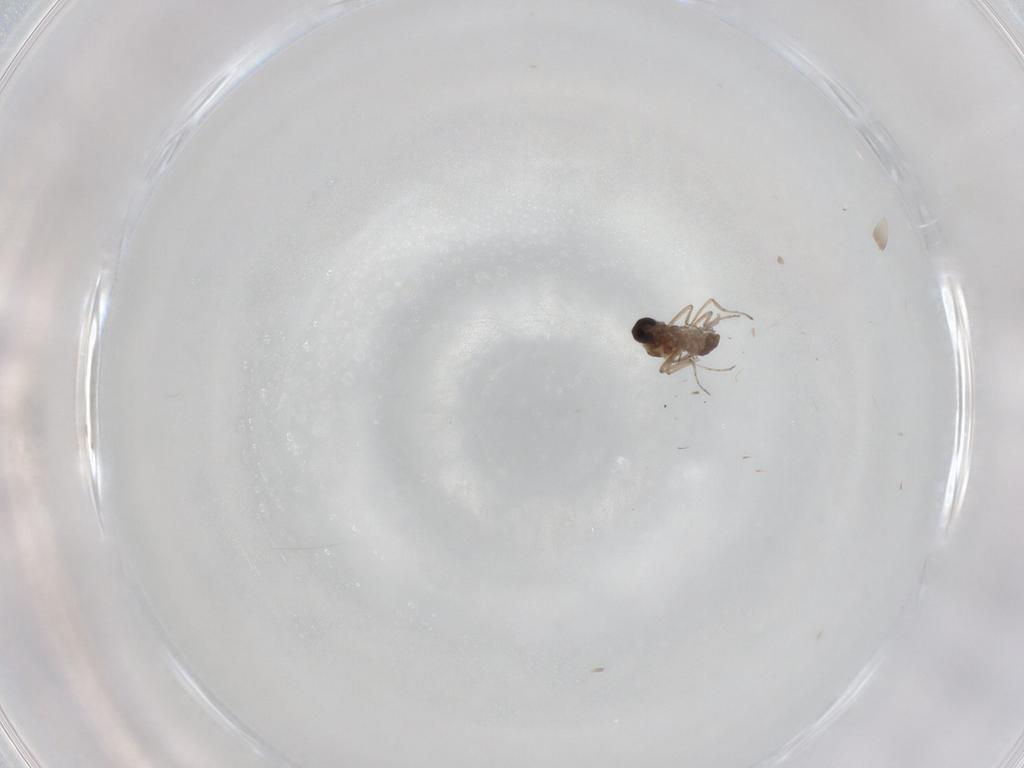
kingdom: Animalia
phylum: Arthropoda
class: Insecta
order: Diptera
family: Ceratopogonidae
